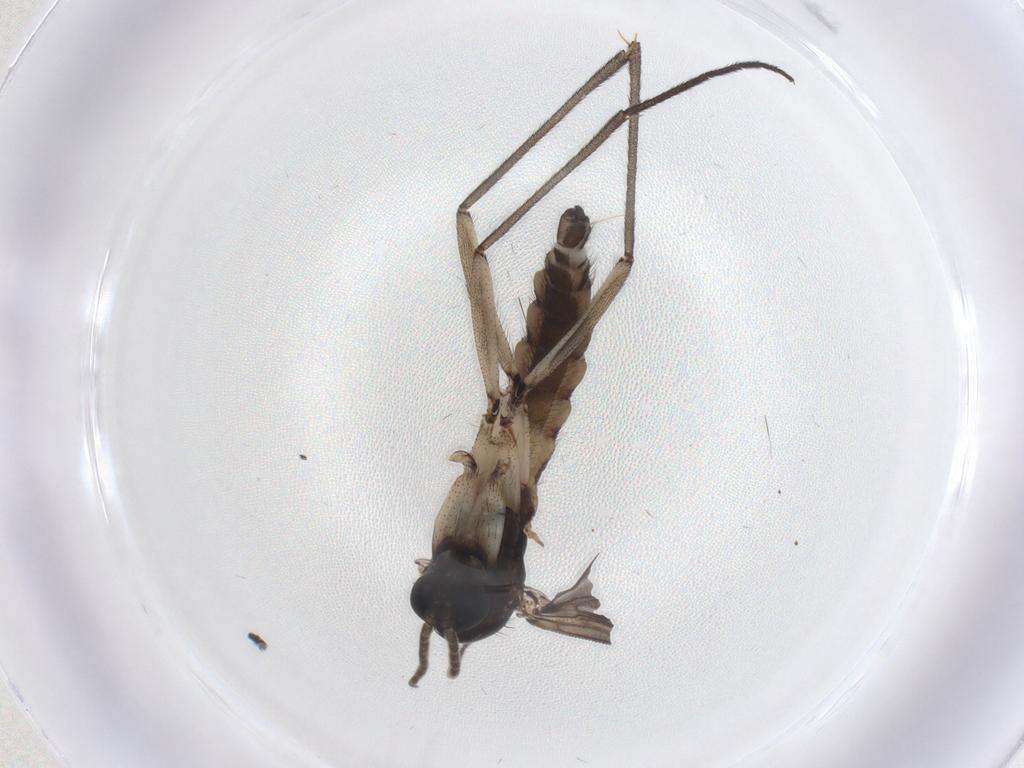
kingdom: Animalia
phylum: Arthropoda
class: Insecta
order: Diptera
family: Sciaridae
